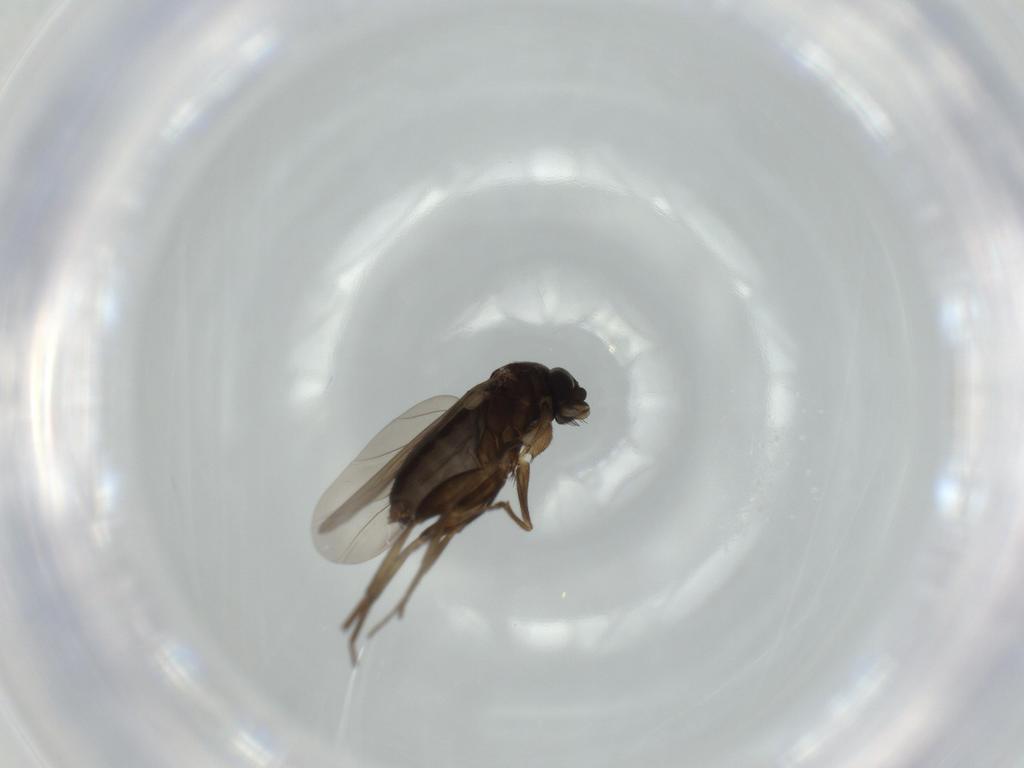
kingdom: Animalia
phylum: Arthropoda
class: Insecta
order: Diptera
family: Phoridae
